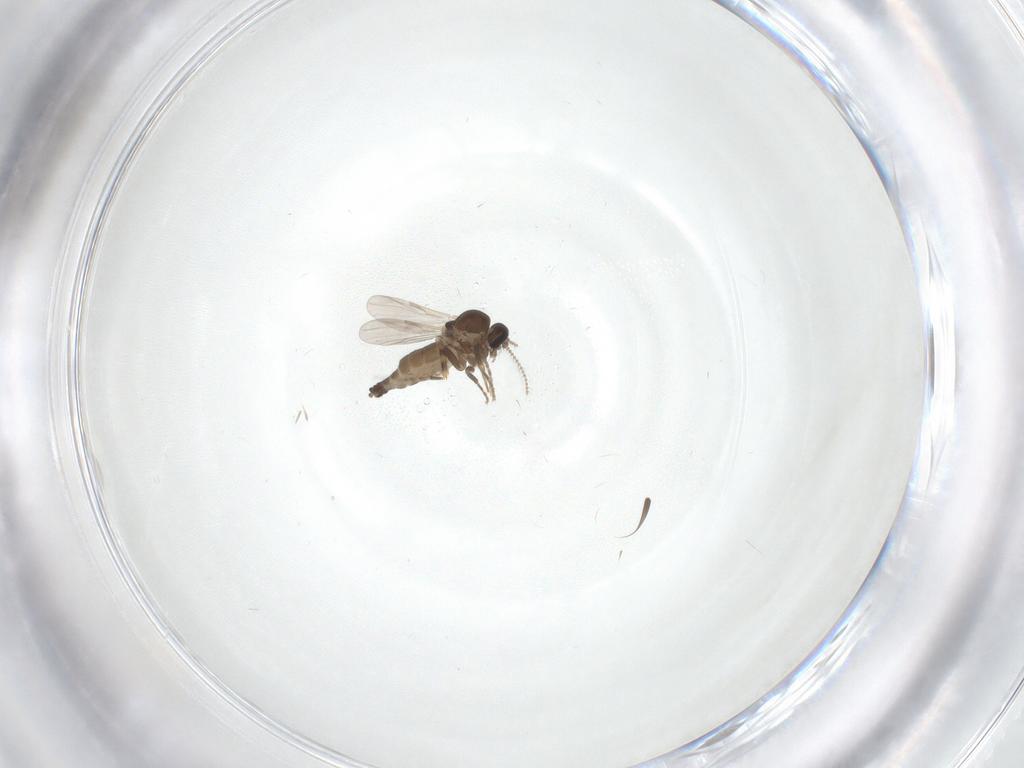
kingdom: Animalia
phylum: Arthropoda
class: Insecta
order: Diptera
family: Ceratopogonidae
